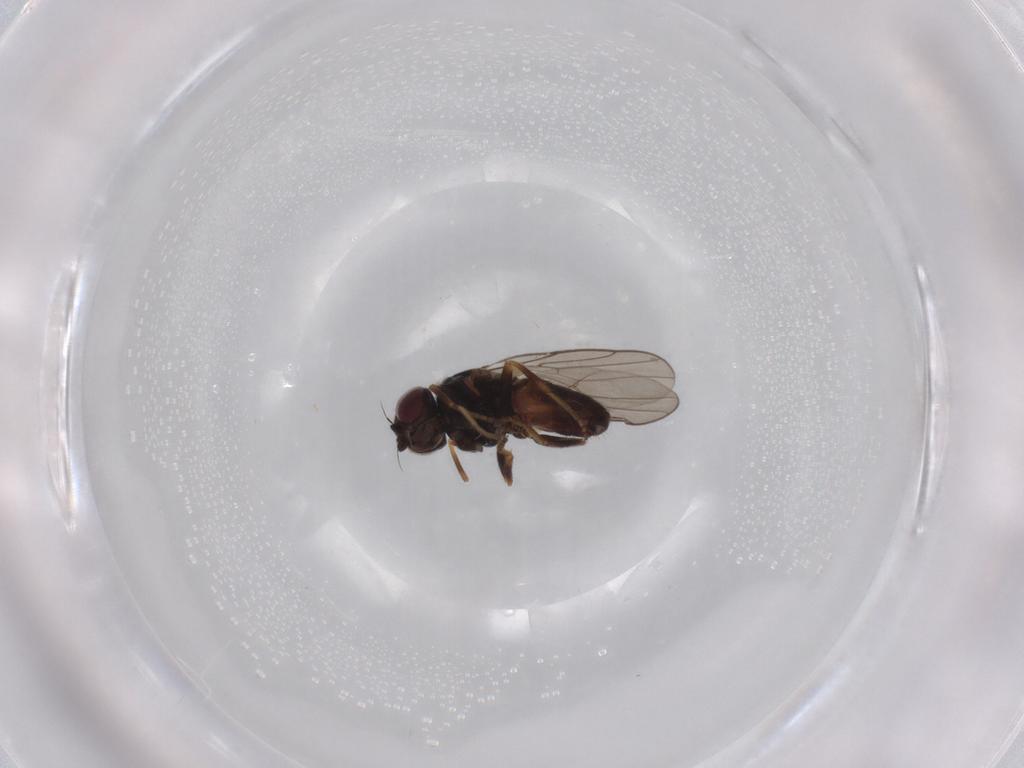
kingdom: Animalia
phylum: Arthropoda
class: Insecta
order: Diptera
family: Chloropidae
